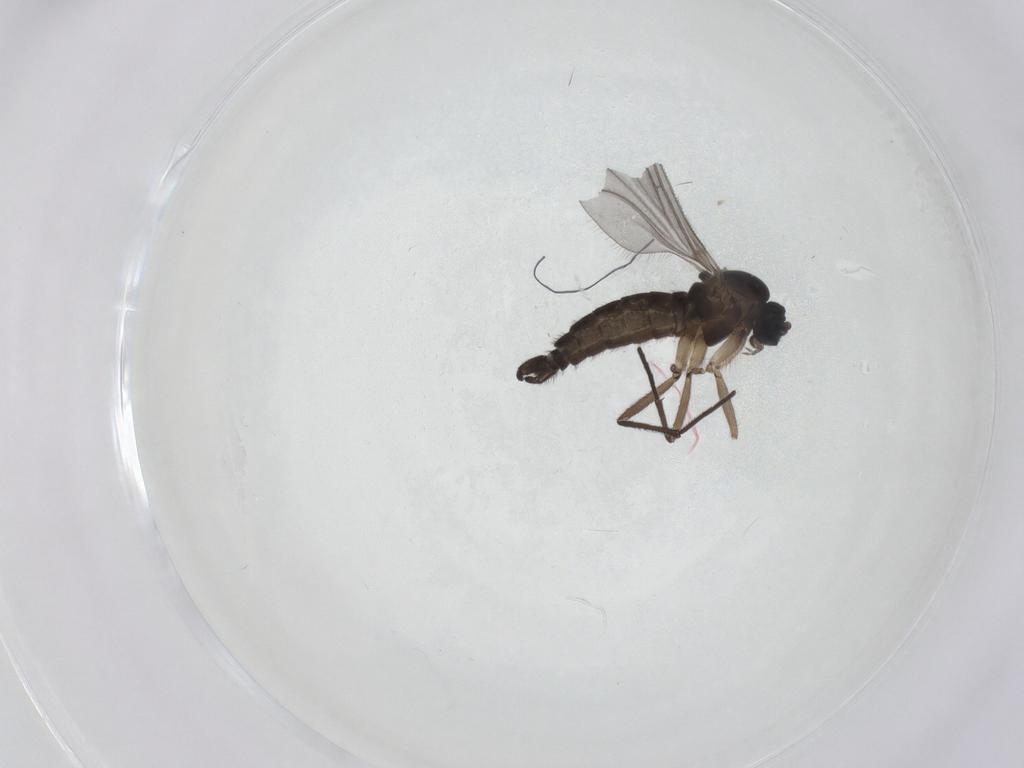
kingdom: Animalia
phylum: Arthropoda
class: Insecta
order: Diptera
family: Sciaridae
